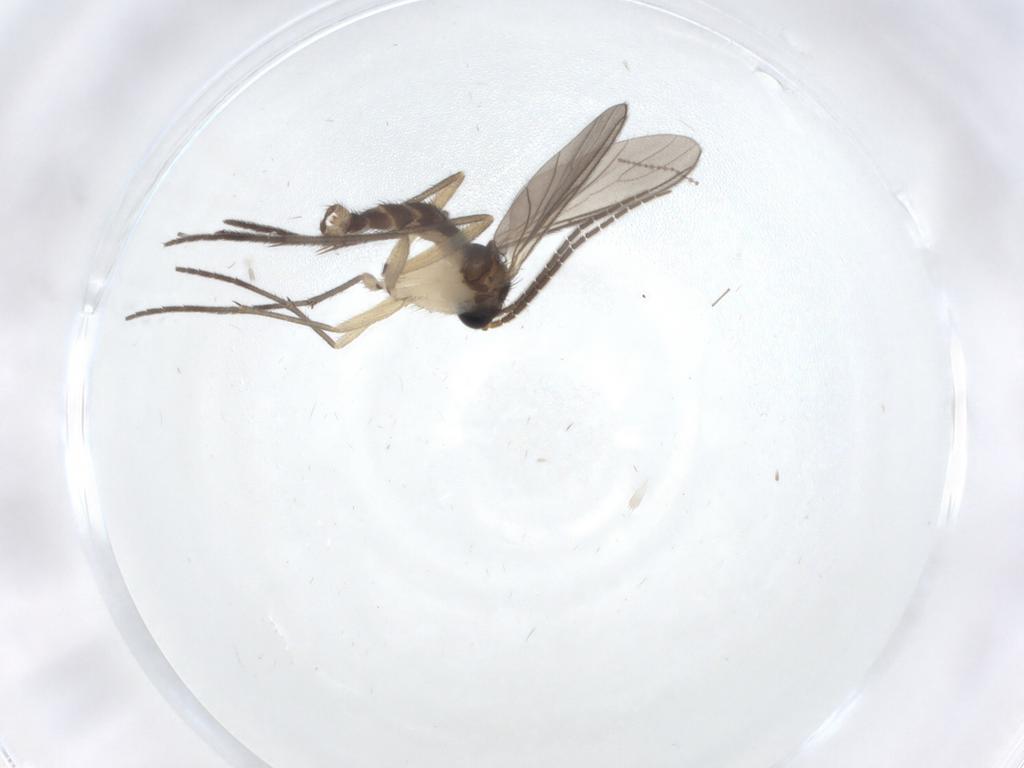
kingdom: Animalia
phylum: Arthropoda
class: Insecta
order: Diptera
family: Sciaridae
